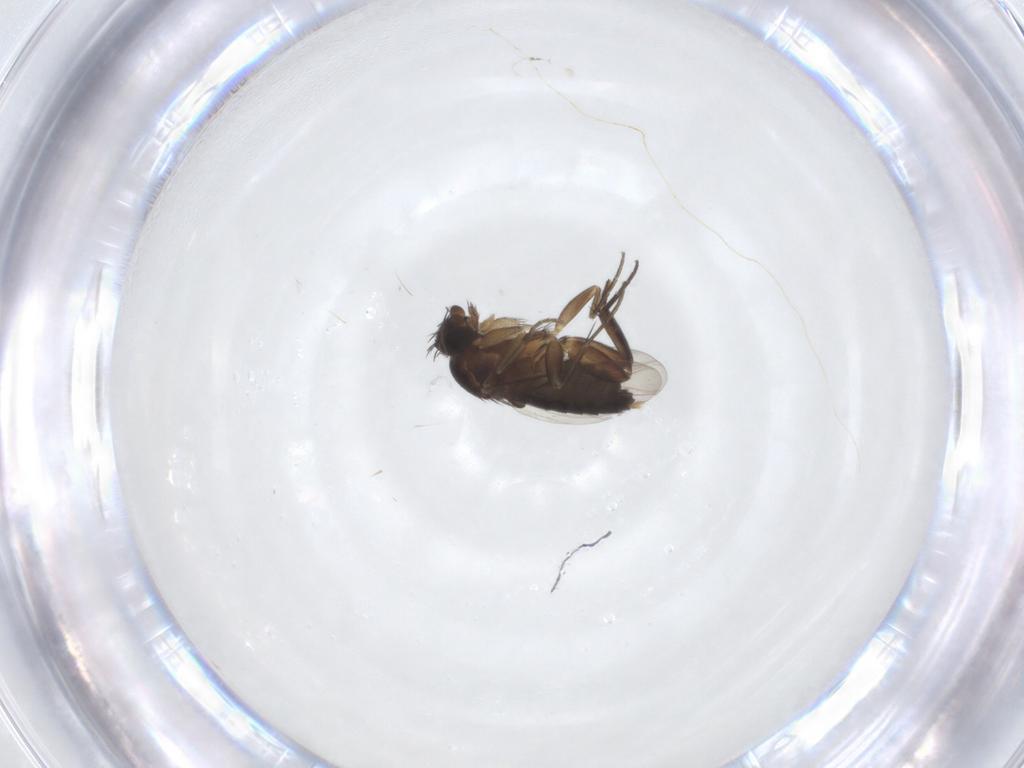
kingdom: Animalia
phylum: Arthropoda
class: Insecta
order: Diptera
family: Phoridae
